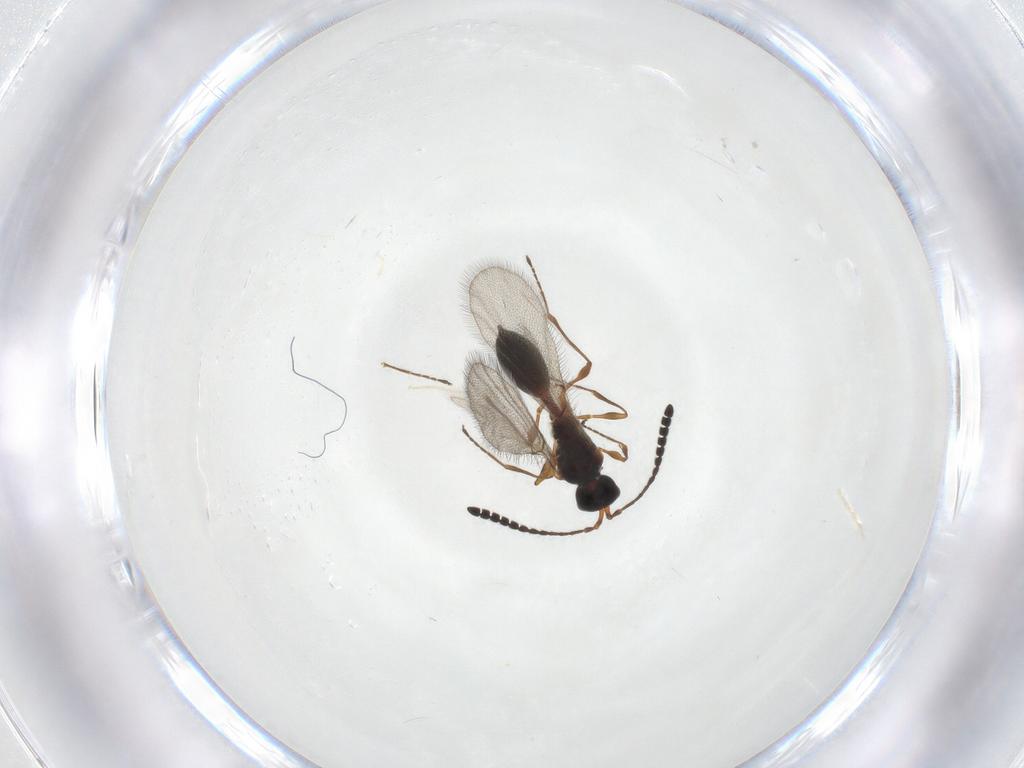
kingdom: Animalia
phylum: Arthropoda
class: Insecta
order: Hymenoptera
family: Diapriidae
